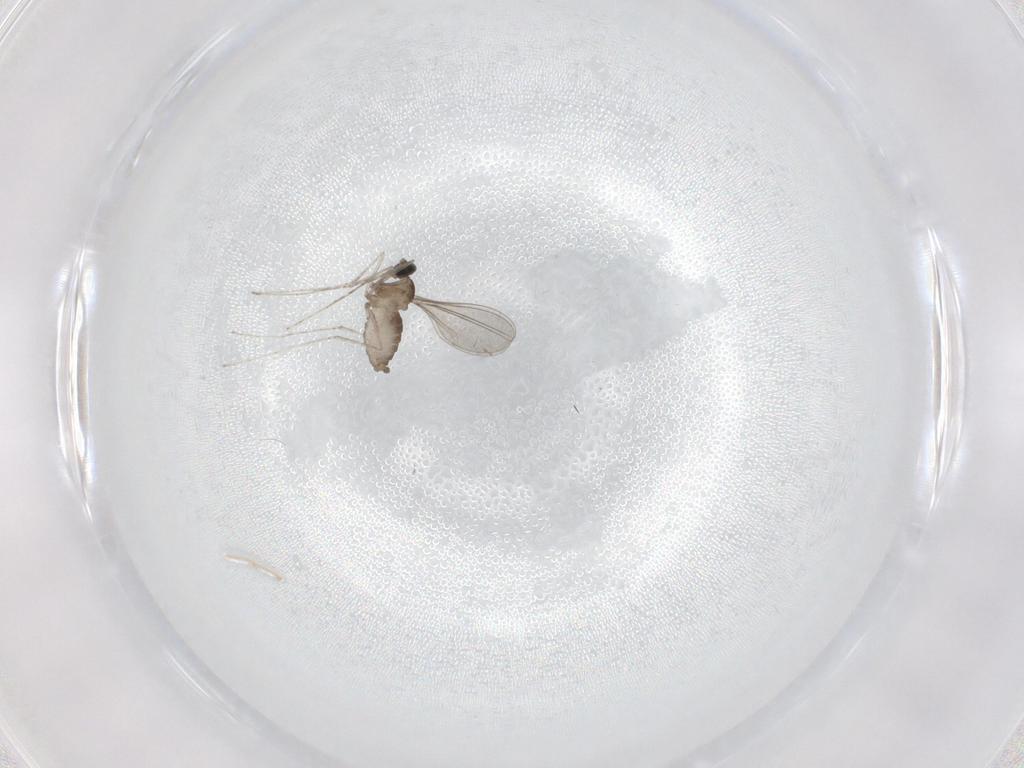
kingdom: Animalia
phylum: Arthropoda
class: Insecta
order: Diptera
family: Cecidomyiidae
